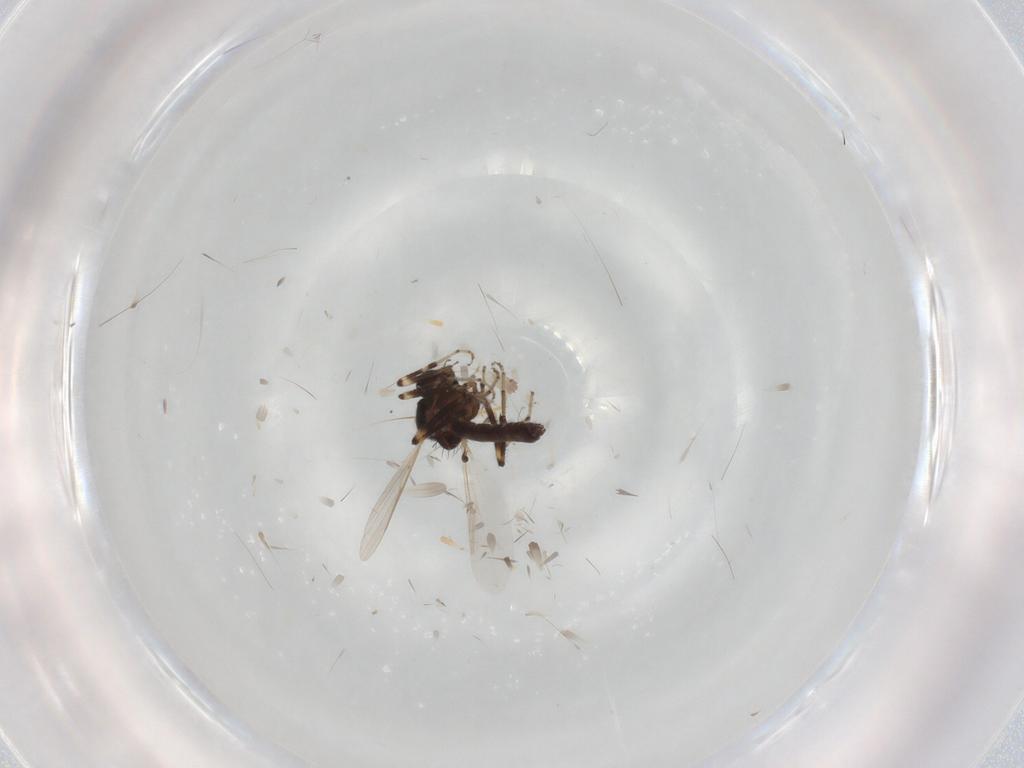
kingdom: Animalia
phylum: Arthropoda
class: Insecta
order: Diptera
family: Ceratopogonidae
